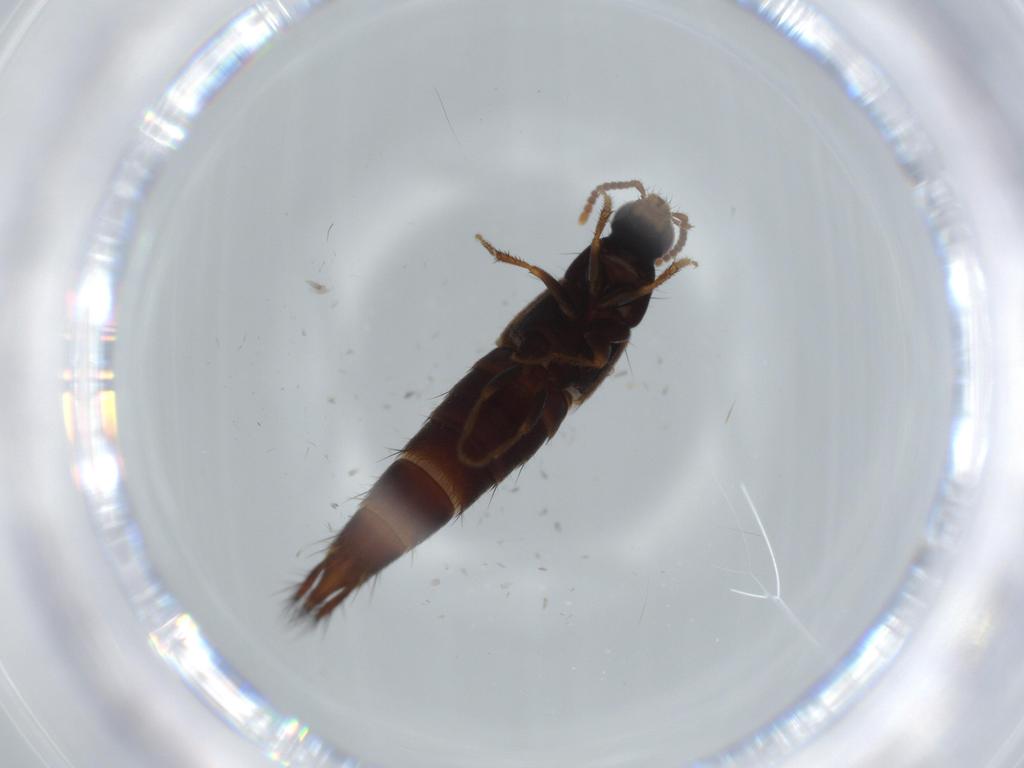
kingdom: Animalia
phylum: Arthropoda
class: Insecta
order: Coleoptera
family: Staphylinidae
